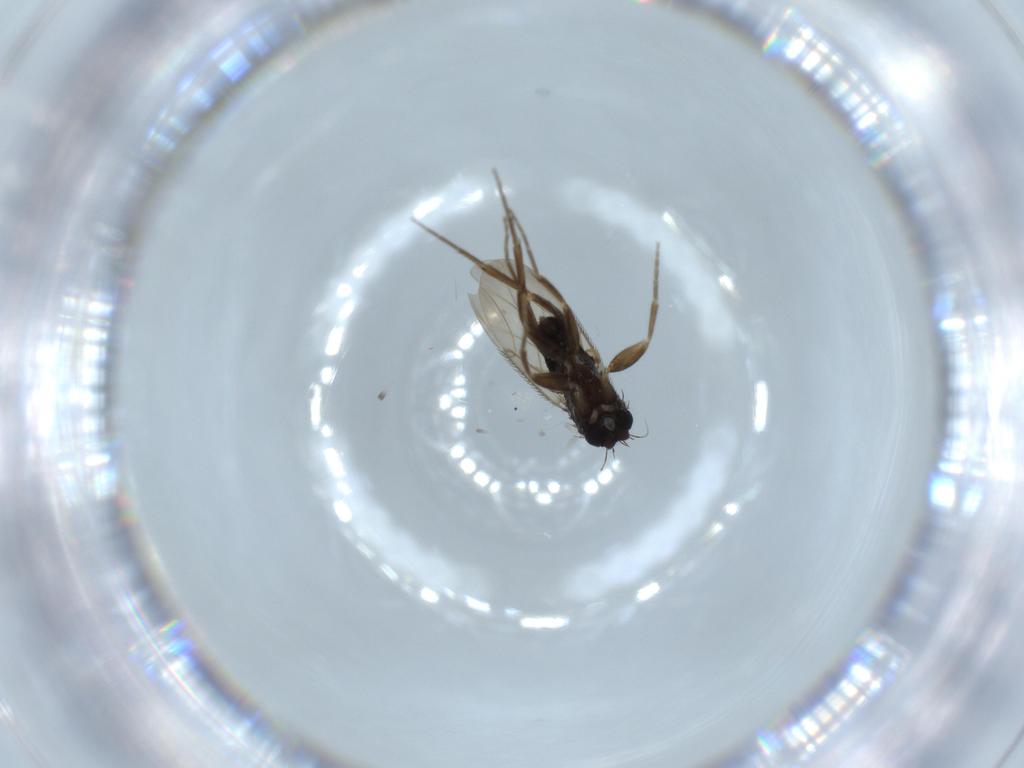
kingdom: Animalia
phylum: Arthropoda
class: Insecta
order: Diptera
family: Phoridae
